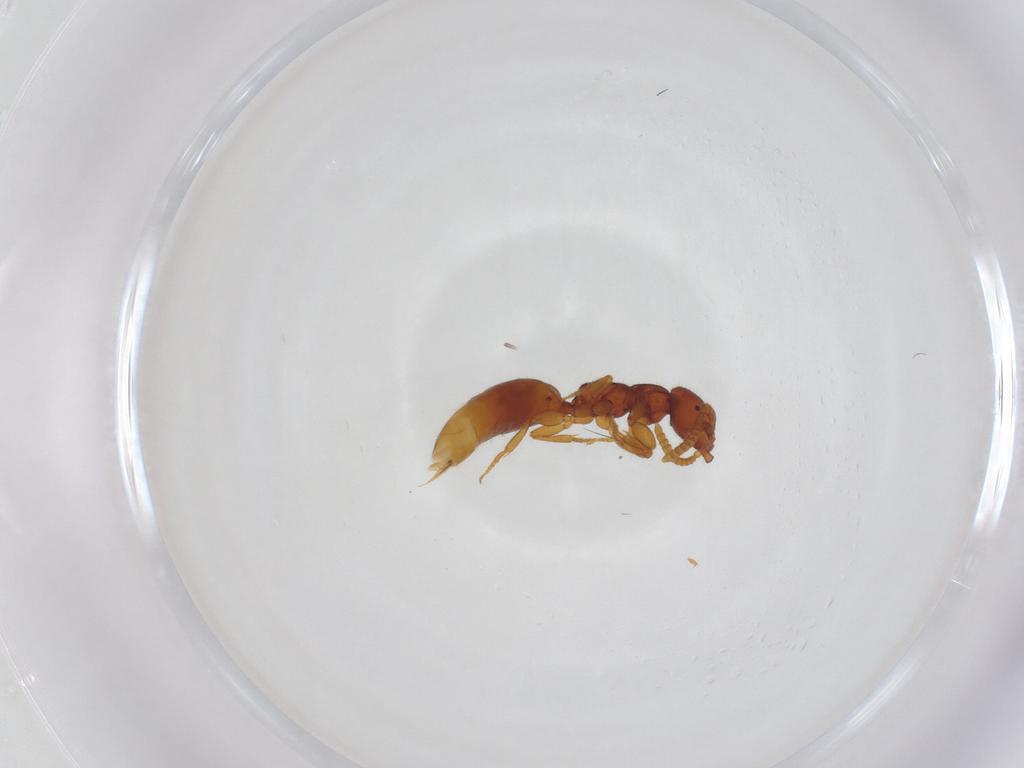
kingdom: Animalia
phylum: Arthropoda
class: Insecta
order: Hymenoptera
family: Bethylidae
